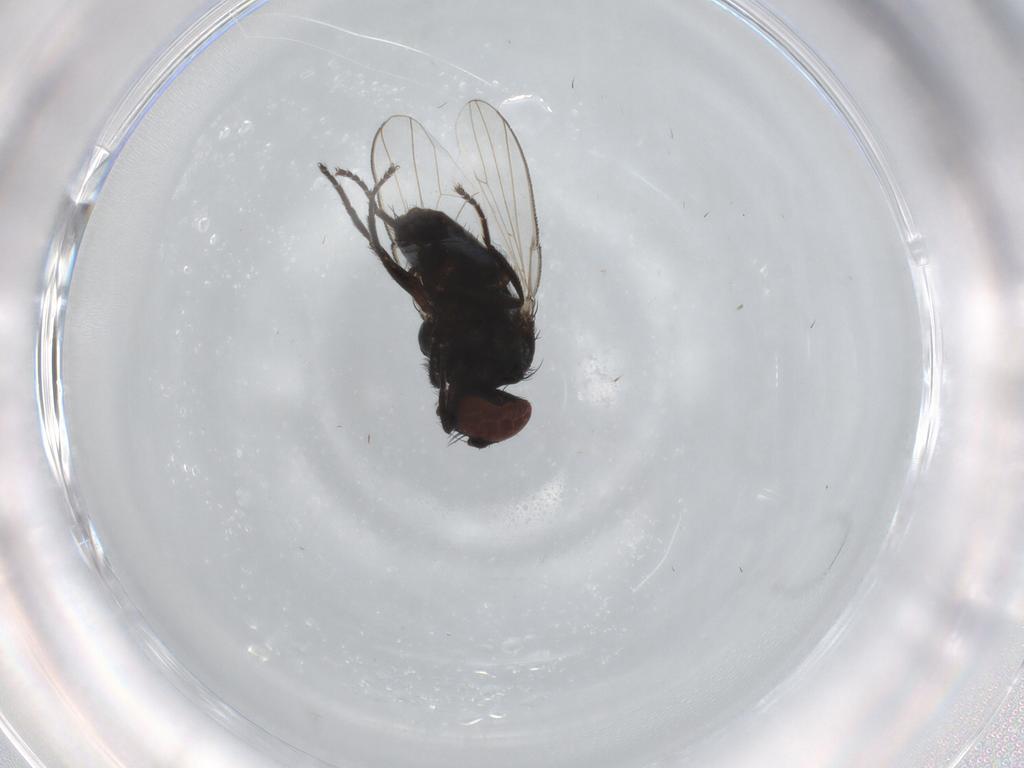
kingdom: Animalia
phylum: Arthropoda
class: Insecta
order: Diptera
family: Milichiidae
